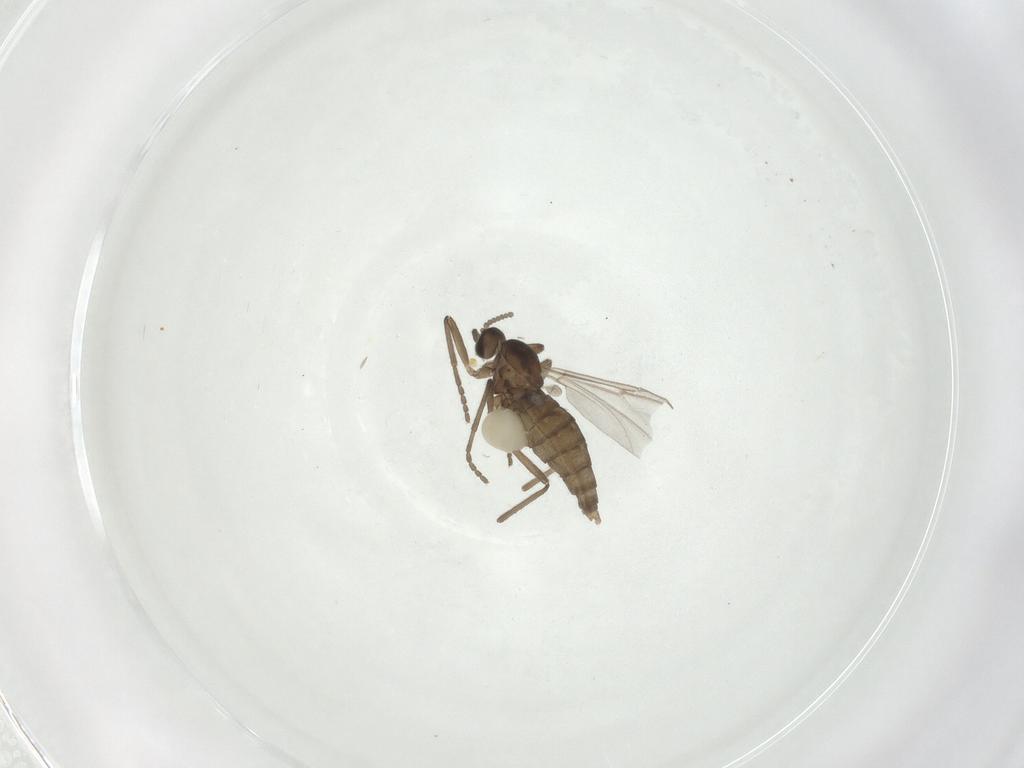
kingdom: Animalia
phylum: Arthropoda
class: Insecta
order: Diptera
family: Cecidomyiidae
